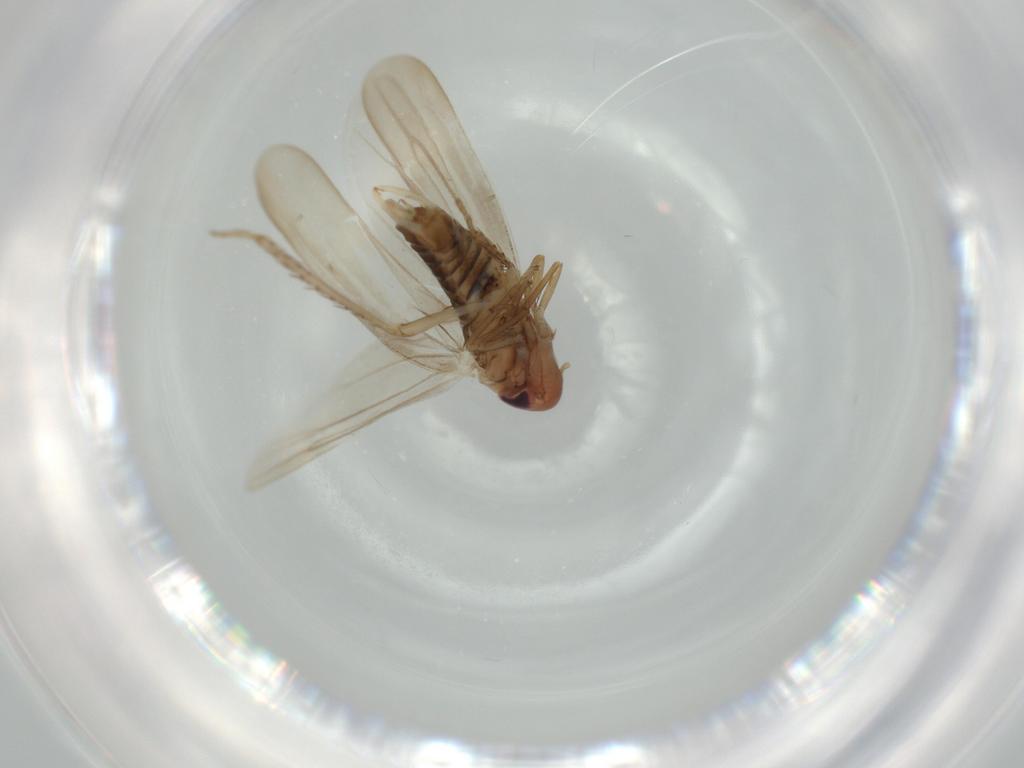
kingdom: Animalia
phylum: Arthropoda
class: Insecta
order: Hemiptera
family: Cicadellidae
